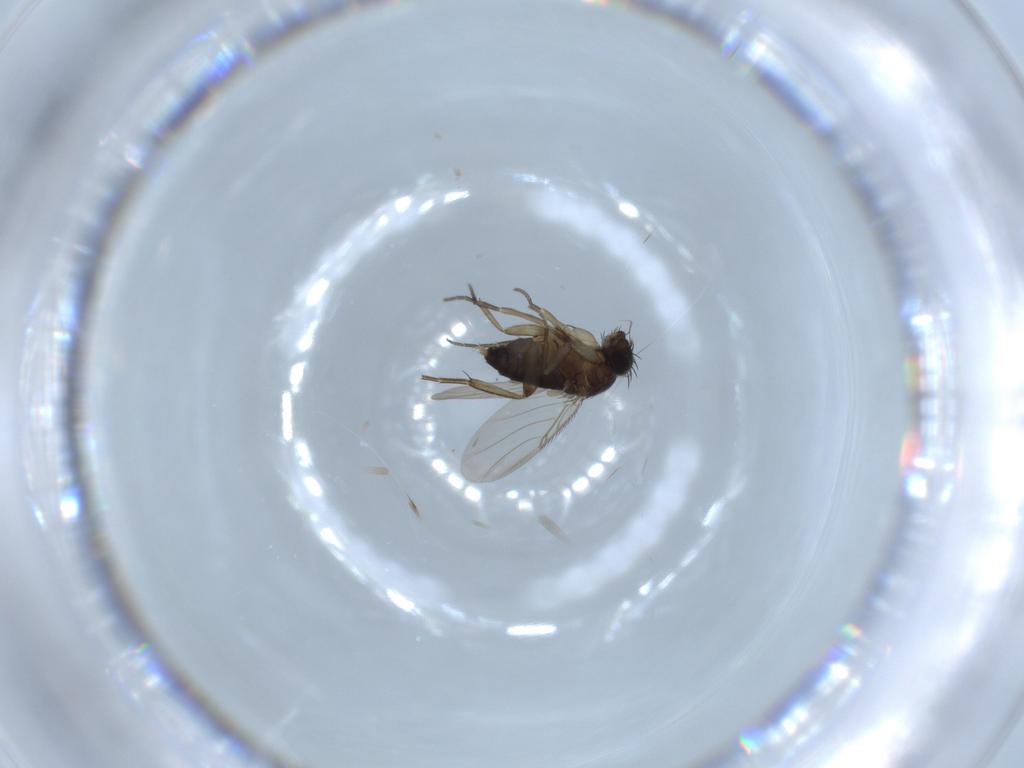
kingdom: Animalia
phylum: Arthropoda
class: Insecta
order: Diptera
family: Phoridae
